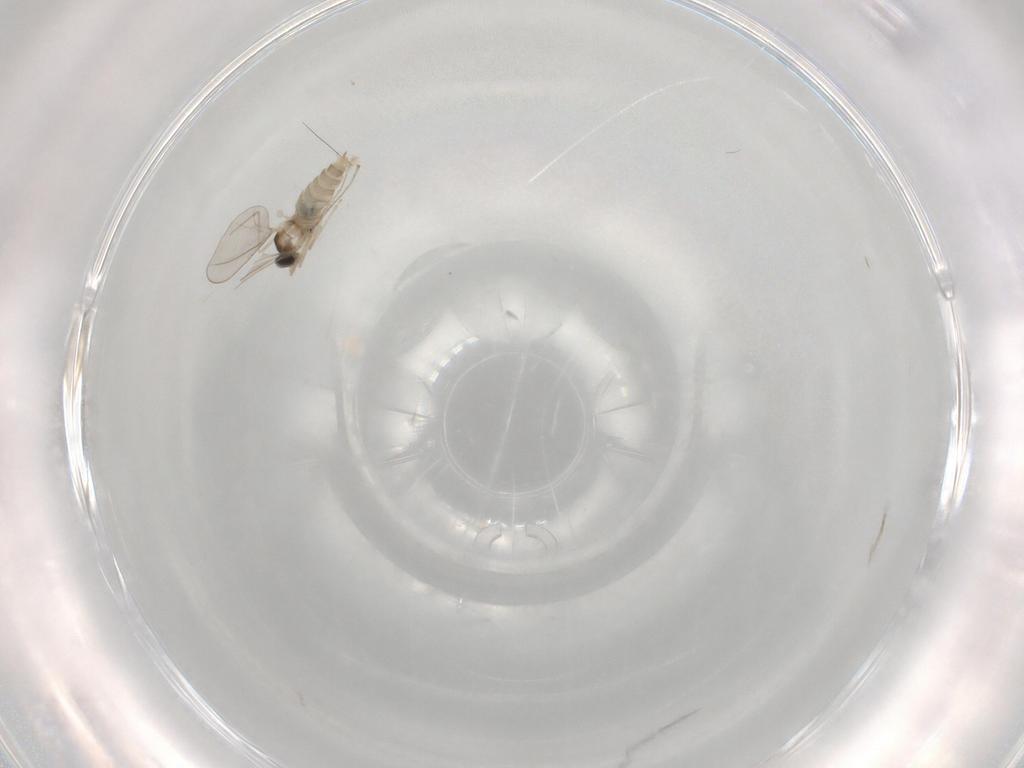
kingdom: Animalia
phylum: Arthropoda
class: Insecta
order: Diptera
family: Cecidomyiidae
